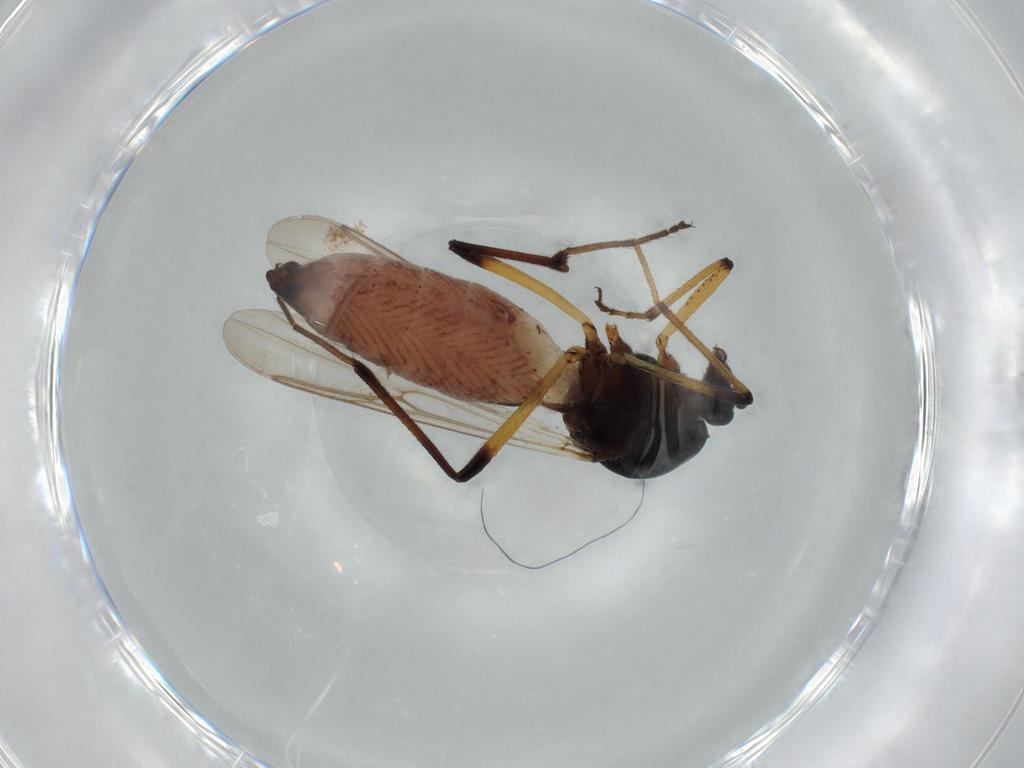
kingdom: Animalia
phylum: Arthropoda
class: Insecta
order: Diptera
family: Ceratopogonidae
